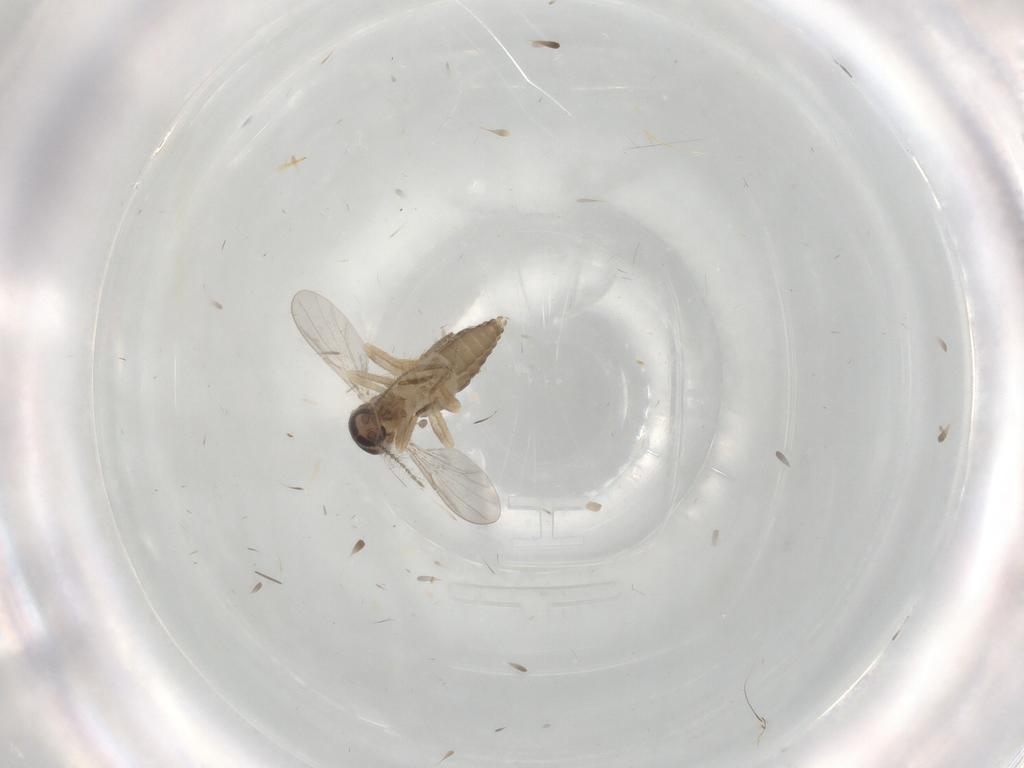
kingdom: Animalia
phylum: Arthropoda
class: Insecta
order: Diptera
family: Ceratopogonidae
